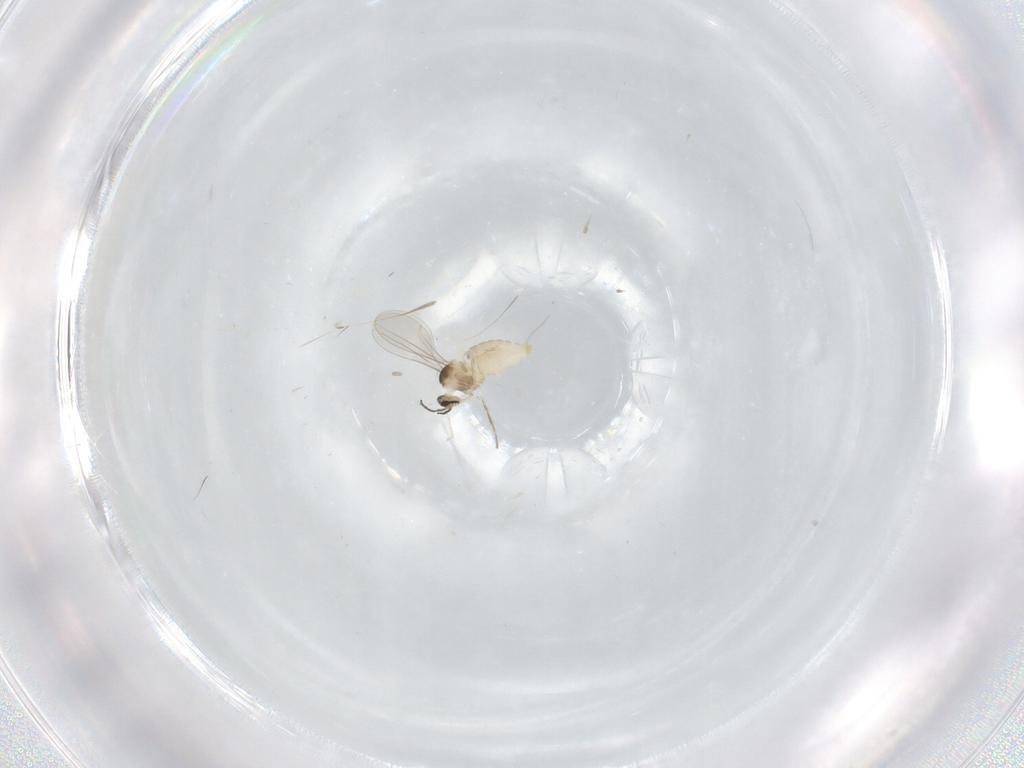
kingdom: Animalia
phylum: Arthropoda
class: Insecta
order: Diptera
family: Cecidomyiidae
